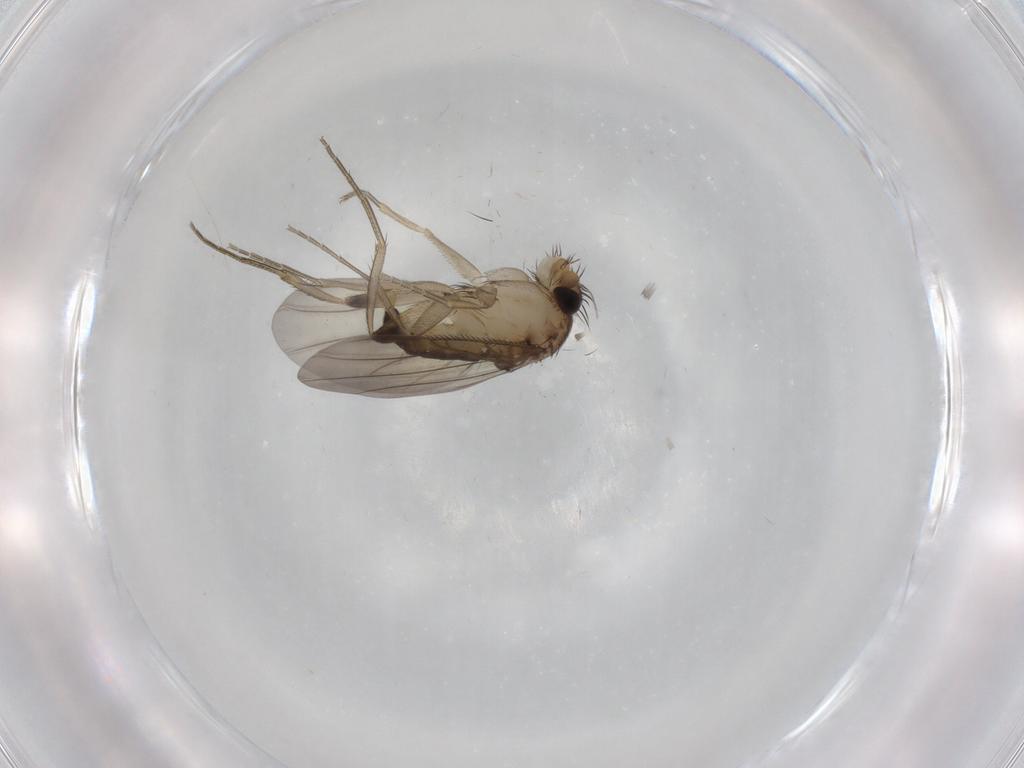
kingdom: Animalia
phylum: Arthropoda
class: Insecta
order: Diptera
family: Phoridae
